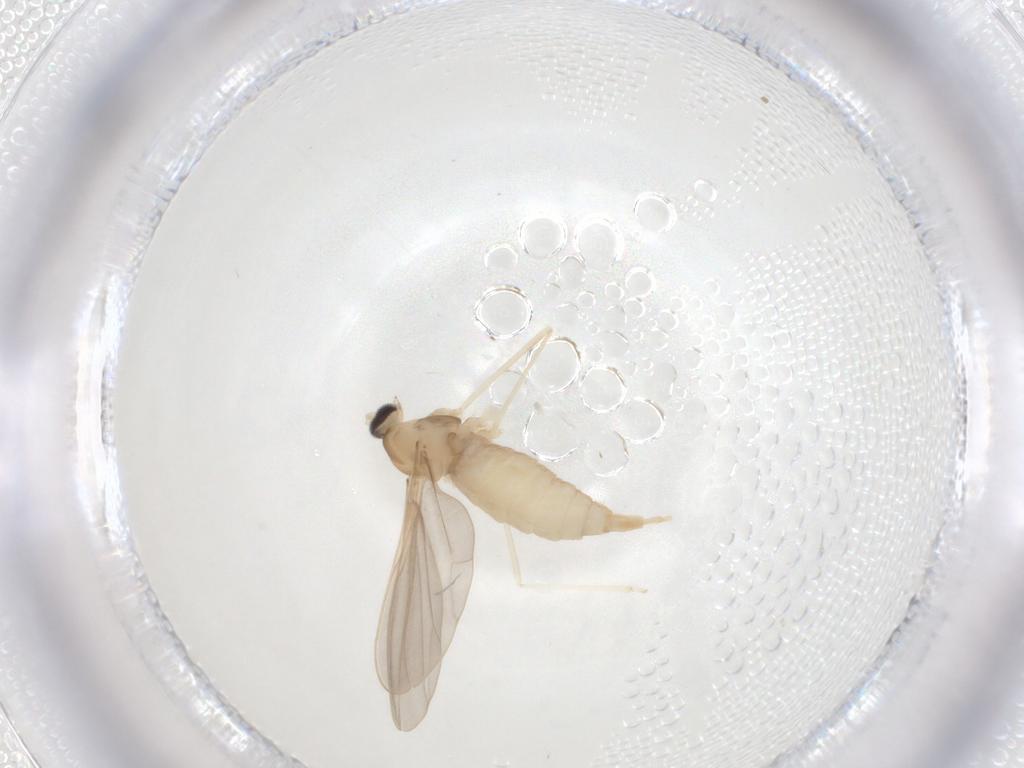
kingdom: Animalia
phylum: Arthropoda
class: Insecta
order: Diptera
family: Cecidomyiidae
